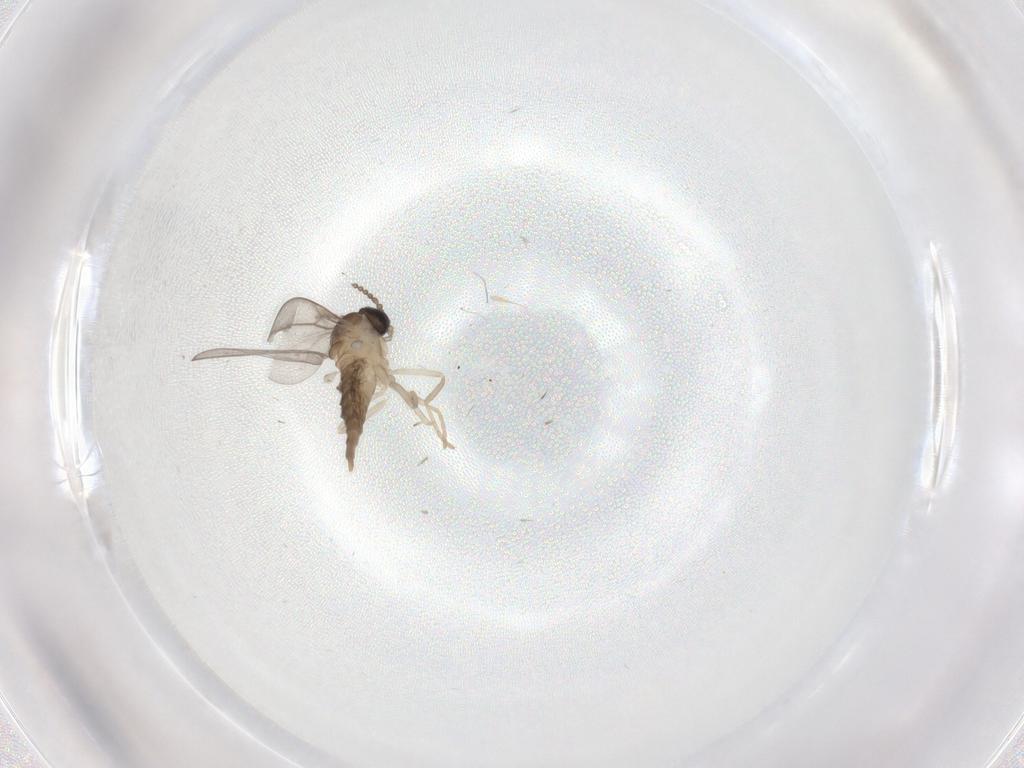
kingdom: Animalia
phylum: Arthropoda
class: Insecta
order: Diptera
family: Cecidomyiidae
